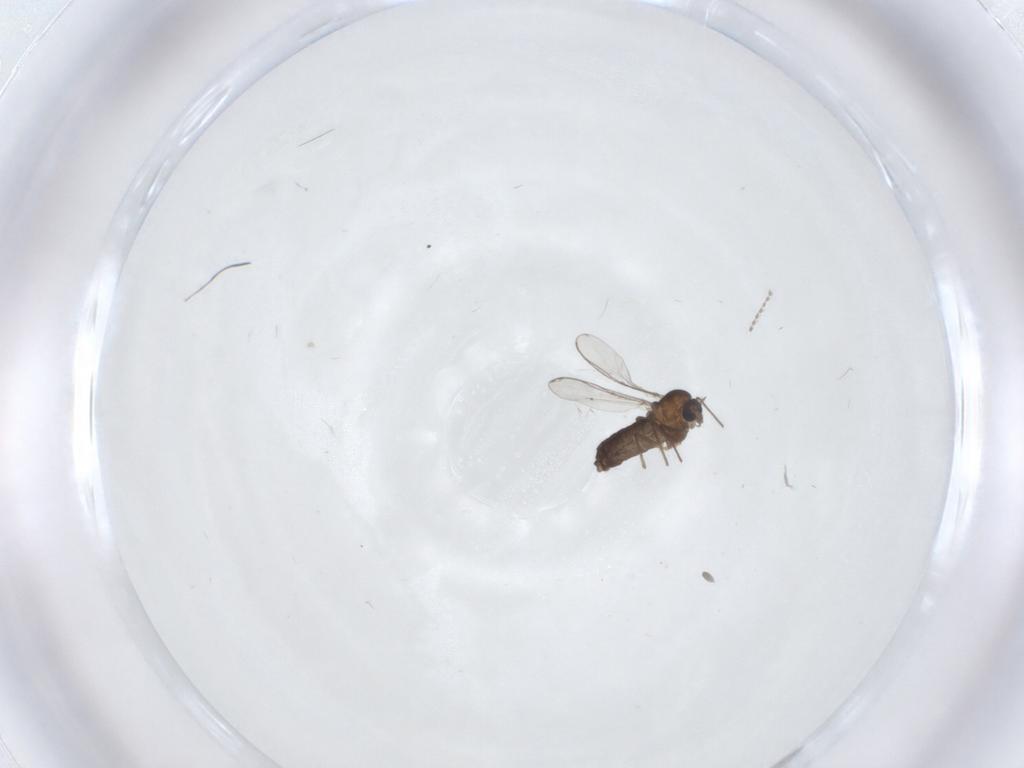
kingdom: Animalia
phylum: Arthropoda
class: Insecta
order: Diptera
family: Chironomidae
